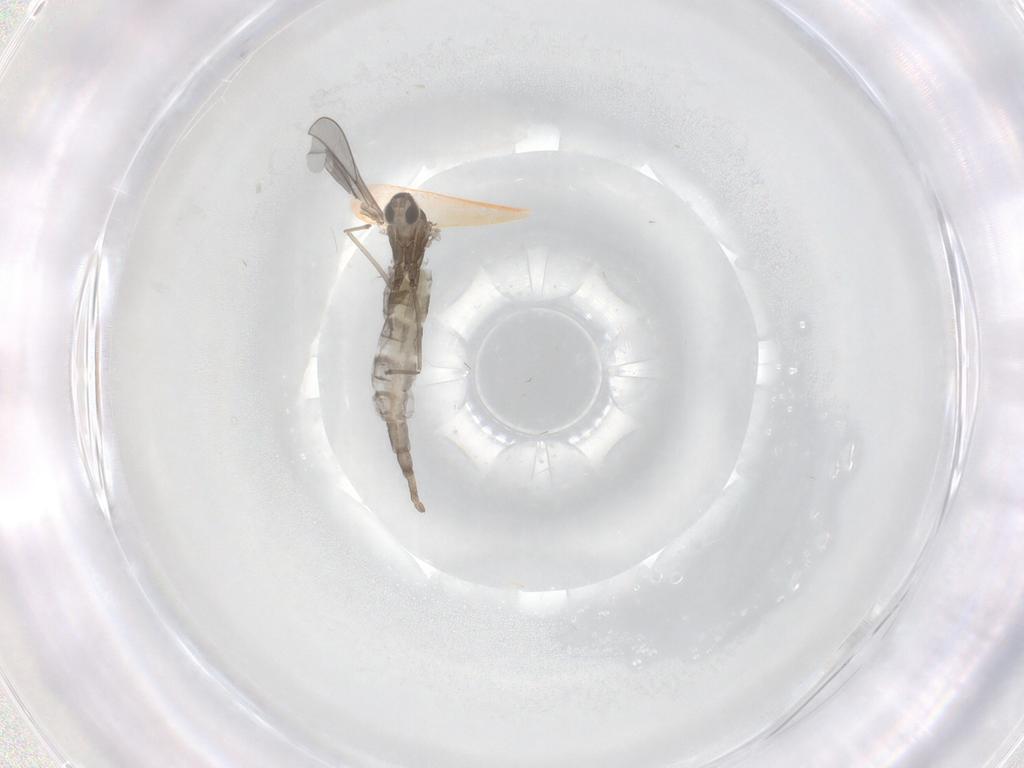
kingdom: Animalia
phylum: Arthropoda
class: Insecta
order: Diptera
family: Cecidomyiidae
